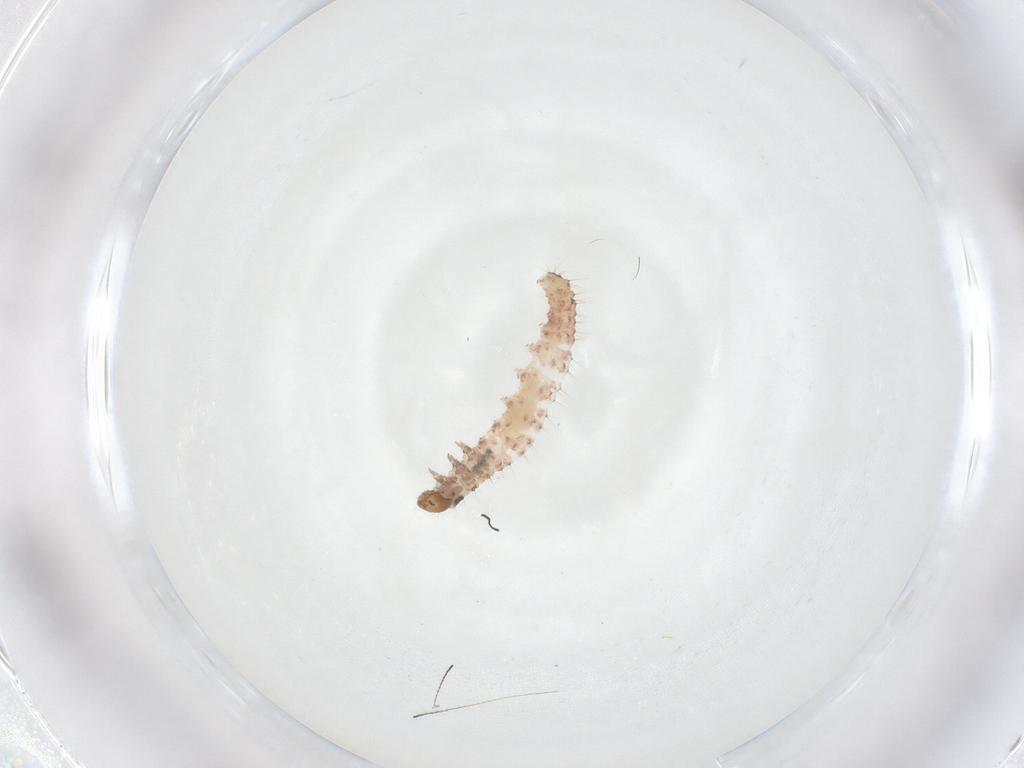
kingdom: Animalia
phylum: Arthropoda
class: Insecta
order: Lepidoptera
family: Coleophoridae
